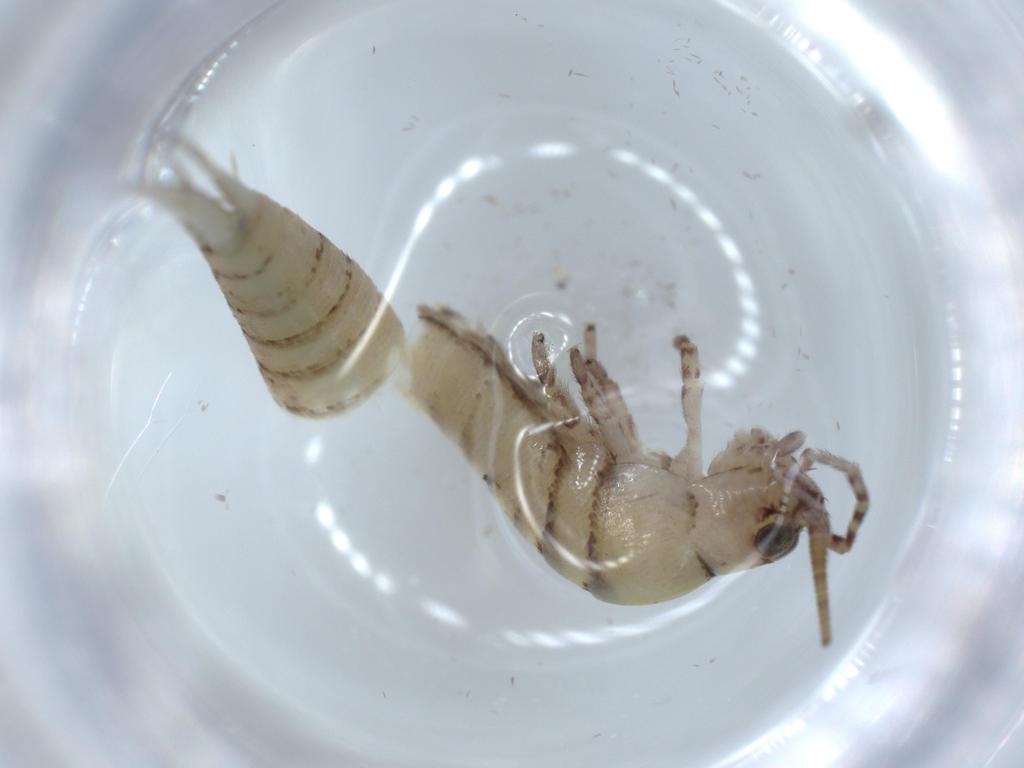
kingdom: Animalia
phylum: Arthropoda
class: Insecta
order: Archaeognatha
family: Machilidae
